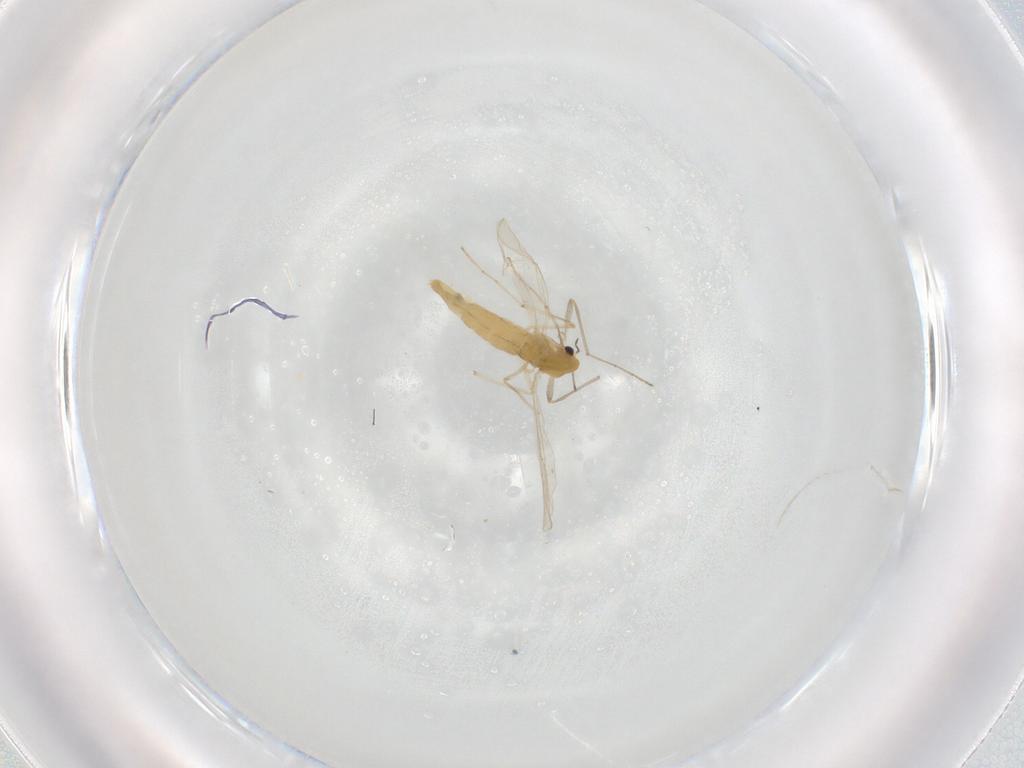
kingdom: Animalia
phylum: Arthropoda
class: Insecta
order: Diptera
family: Chironomidae
